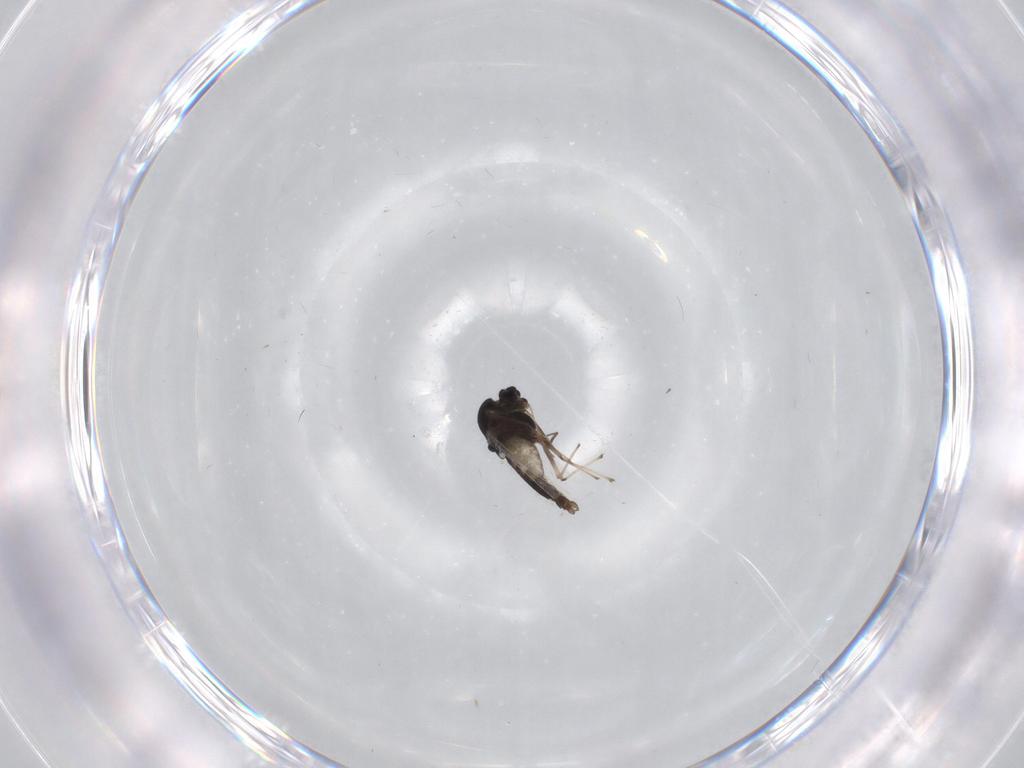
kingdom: Animalia
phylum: Arthropoda
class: Insecta
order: Diptera
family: Chironomidae
